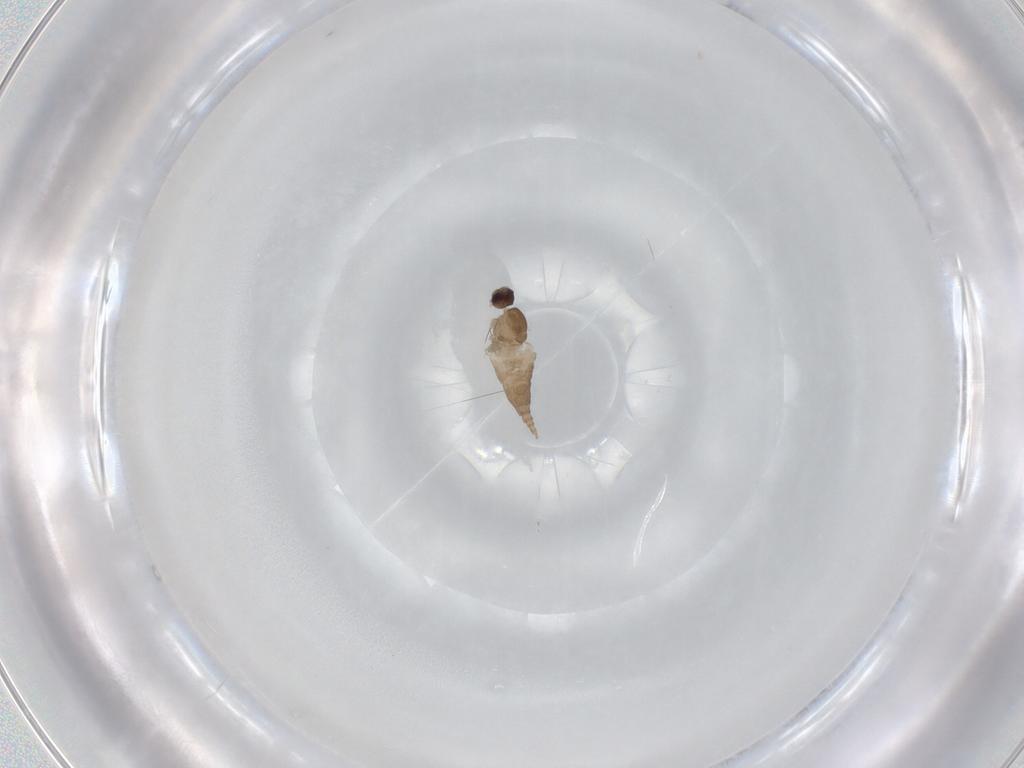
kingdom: Animalia
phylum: Arthropoda
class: Insecta
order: Diptera
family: Cecidomyiidae
